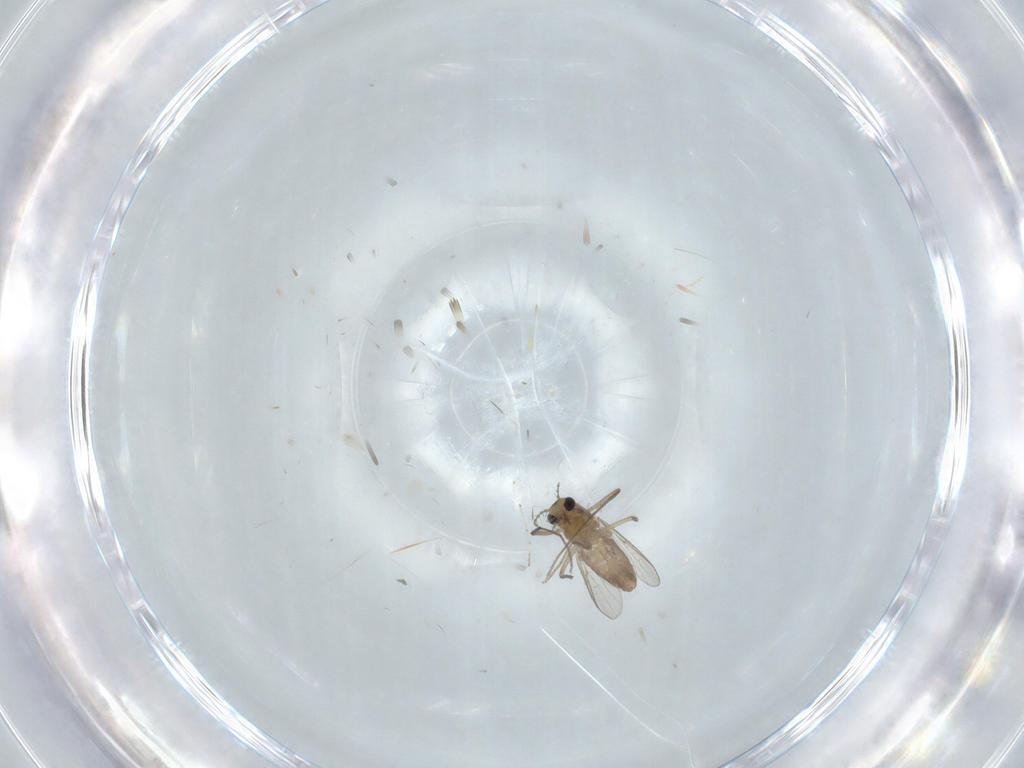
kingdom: Animalia
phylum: Arthropoda
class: Insecta
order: Diptera
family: Chironomidae
